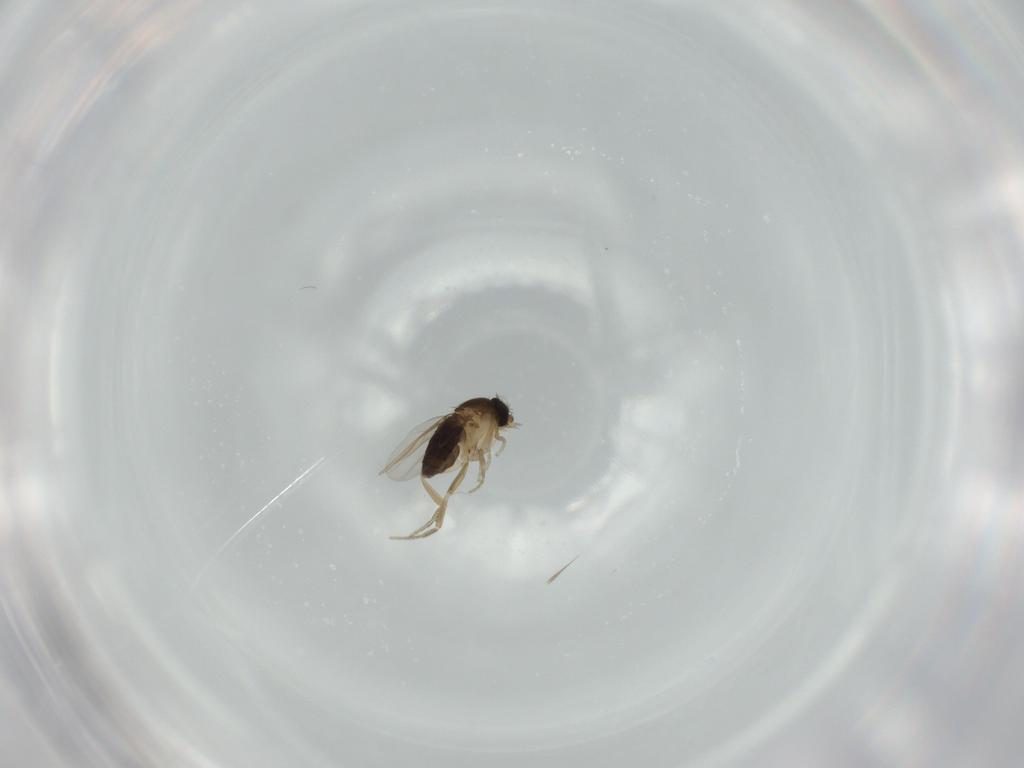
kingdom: Animalia
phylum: Arthropoda
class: Insecta
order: Diptera
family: Phoridae
